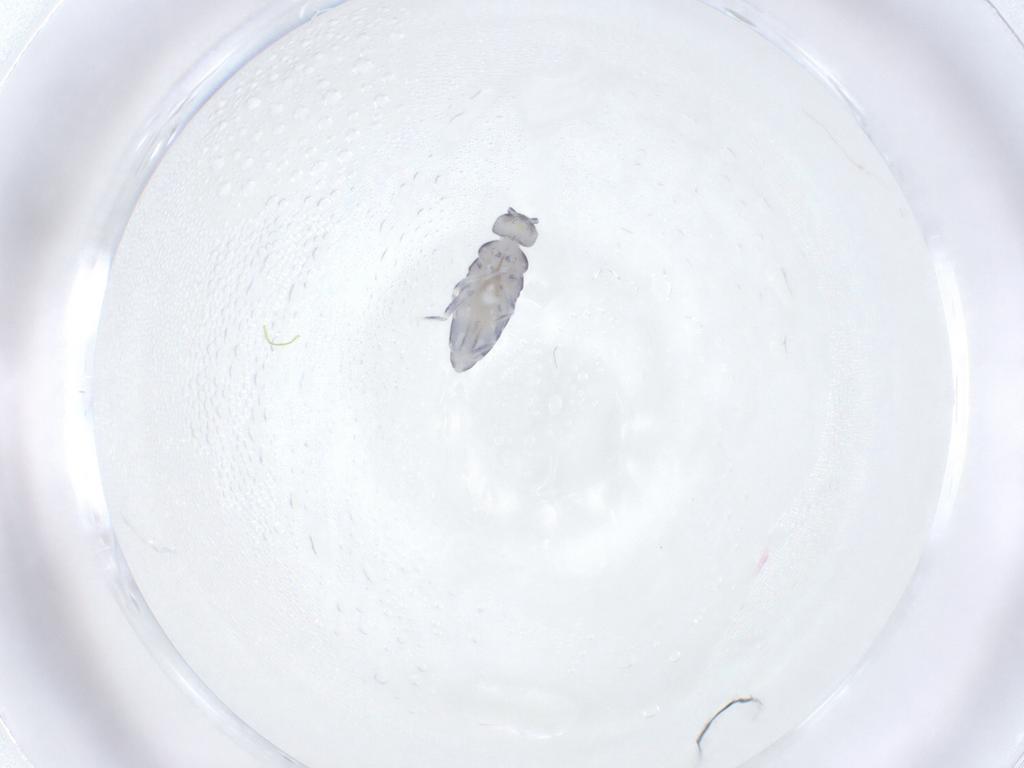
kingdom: Animalia
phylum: Arthropoda
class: Collembola
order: Entomobryomorpha
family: Entomobryidae
